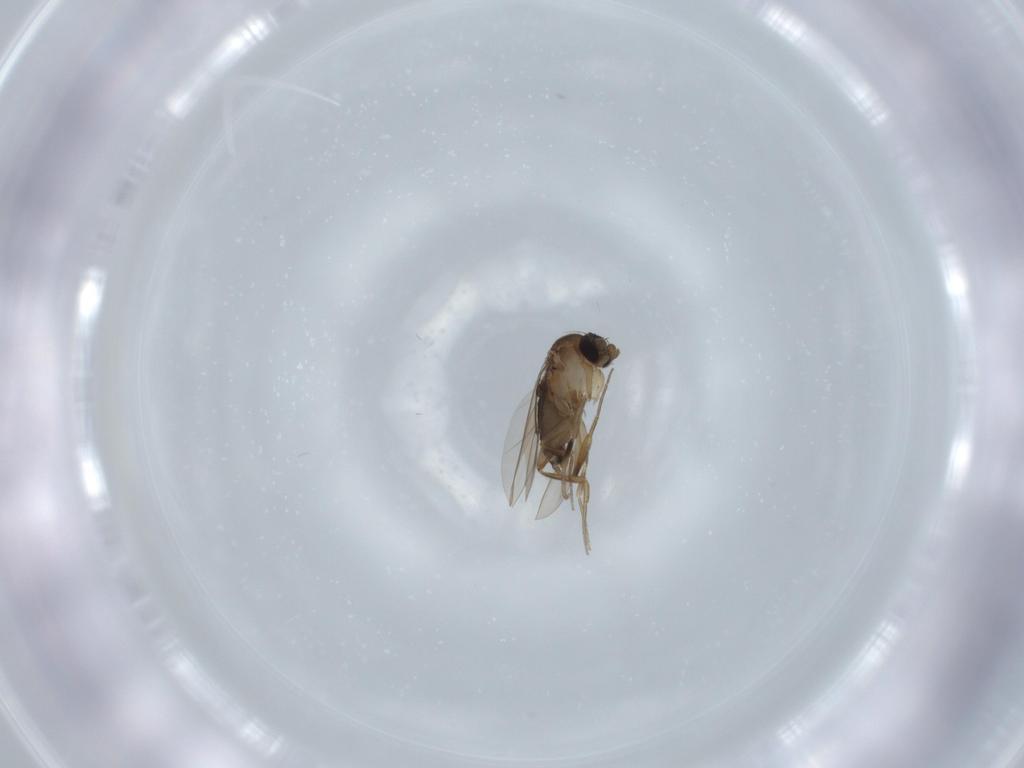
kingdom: Animalia
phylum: Arthropoda
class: Insecta
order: Diptera
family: Phoridae
